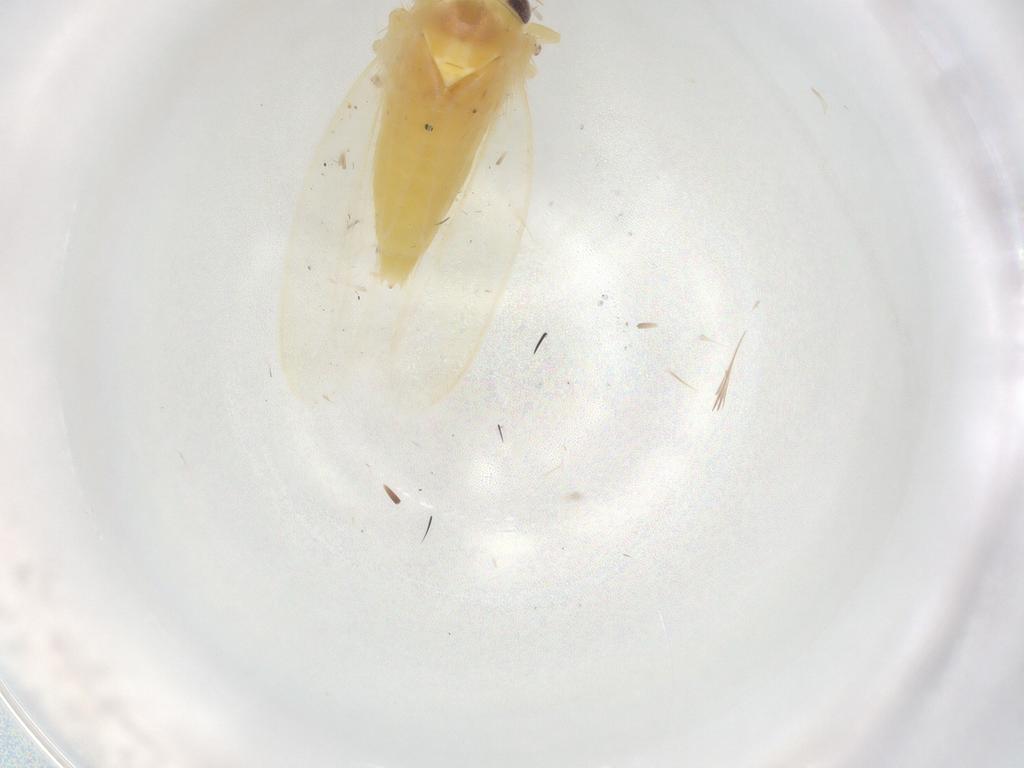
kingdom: Animalia
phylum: Arthropoda
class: Insecta
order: Hemiptera
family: Cicadellidae
